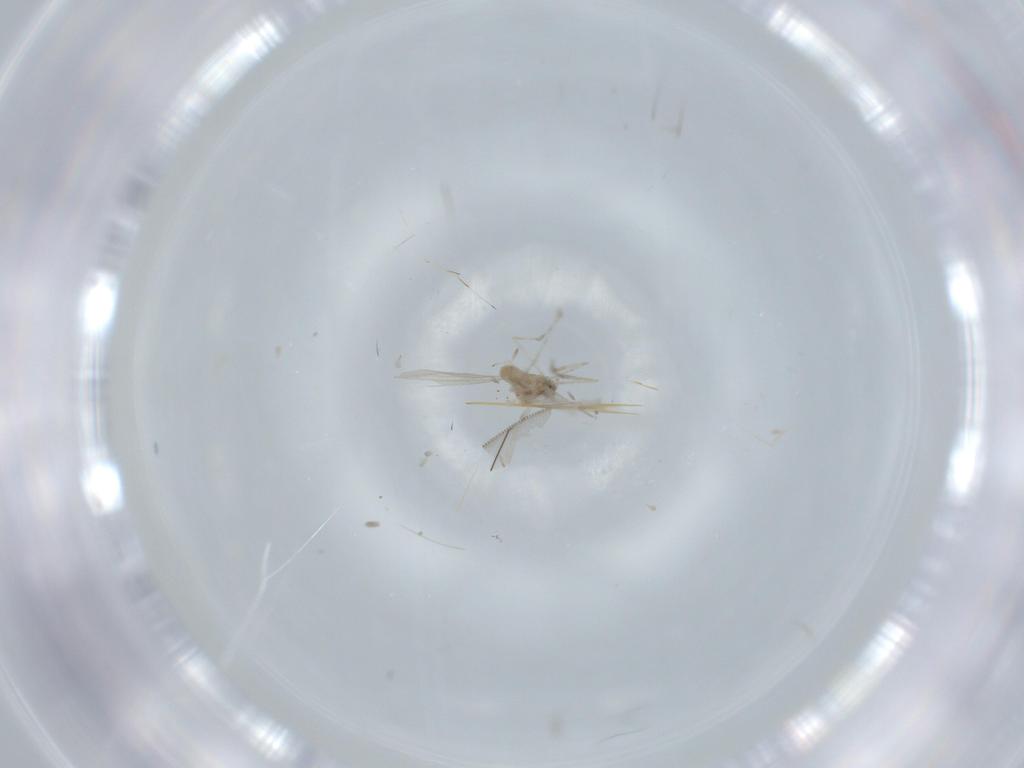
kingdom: Animalia
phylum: Arthropoda
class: Insecta
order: Diptera
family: Cecidomyiidae
